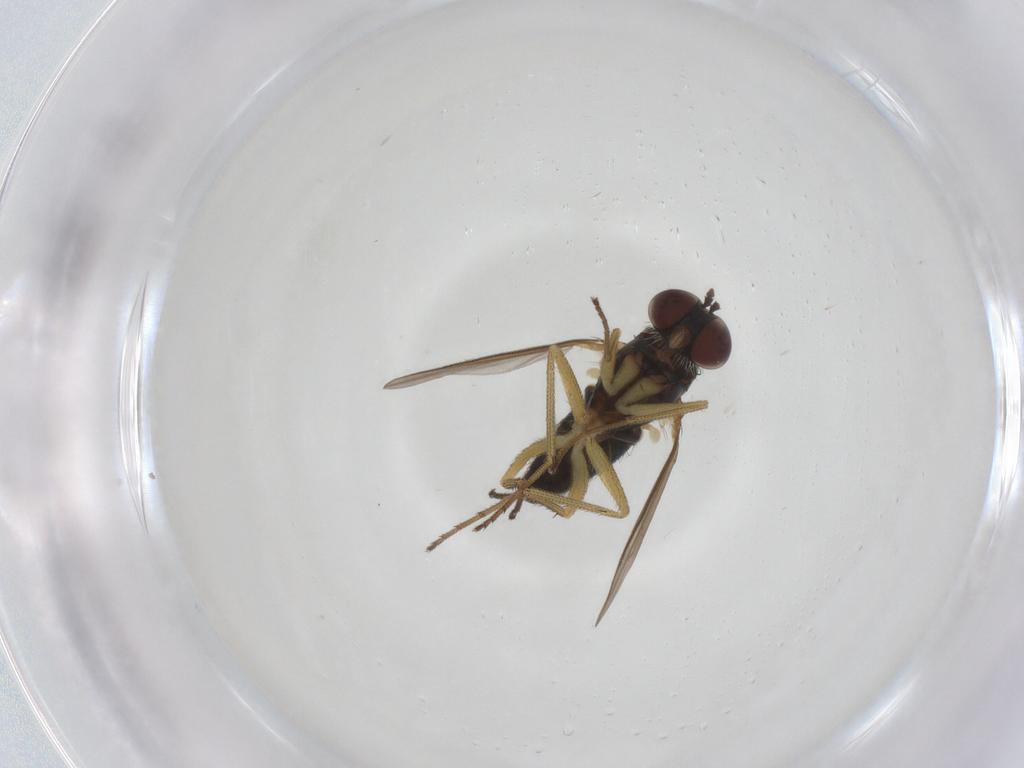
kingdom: Animalia
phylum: Arthropoda
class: Insecta
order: Diptera
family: Dolichopodidae
